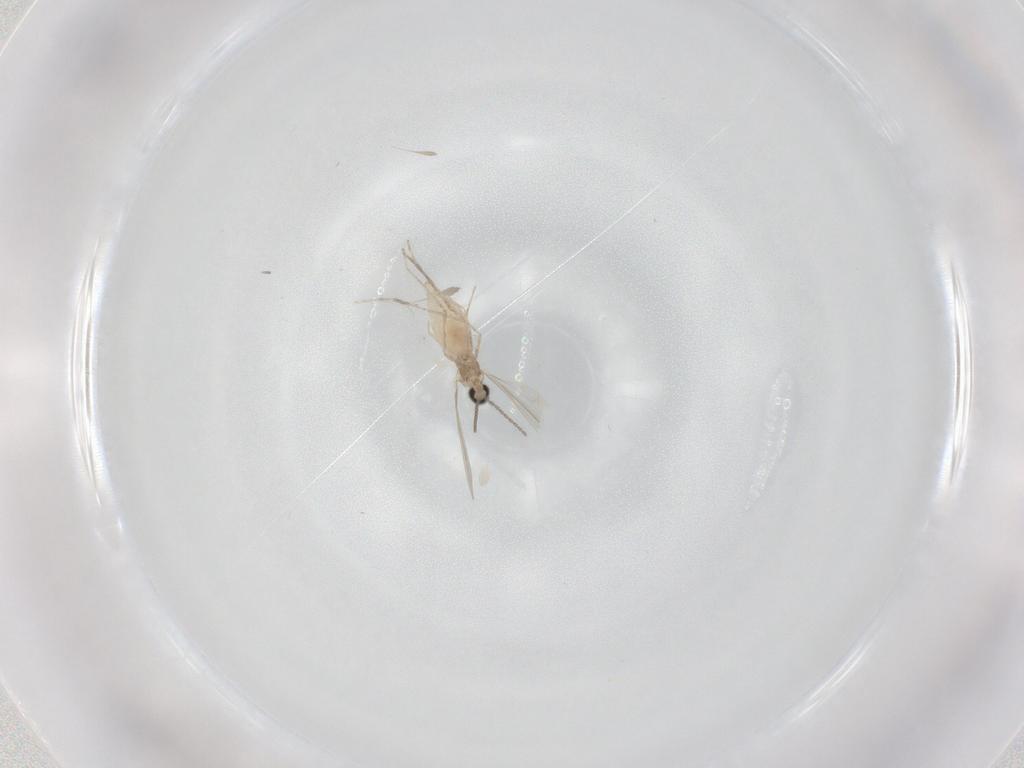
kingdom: Animalia
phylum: Arthropoda
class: Insecta
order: Diptera
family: Cecidomyiidae
